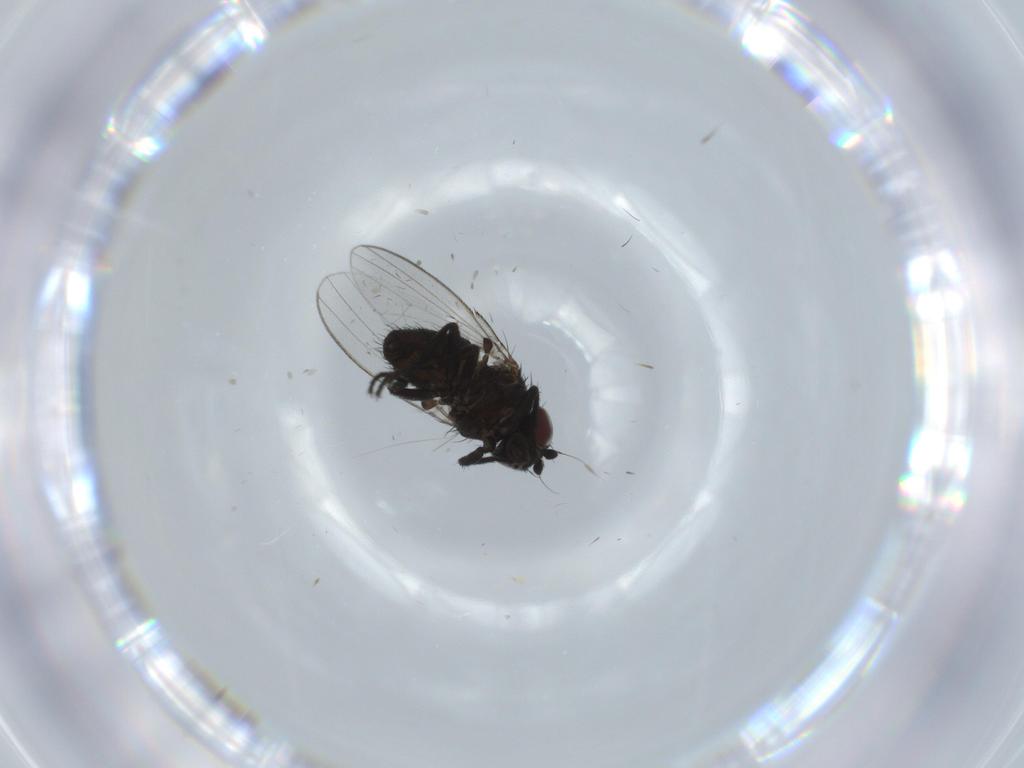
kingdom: Animalia
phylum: Arthropoda
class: Insecta
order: Diptera
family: Milichiidae
